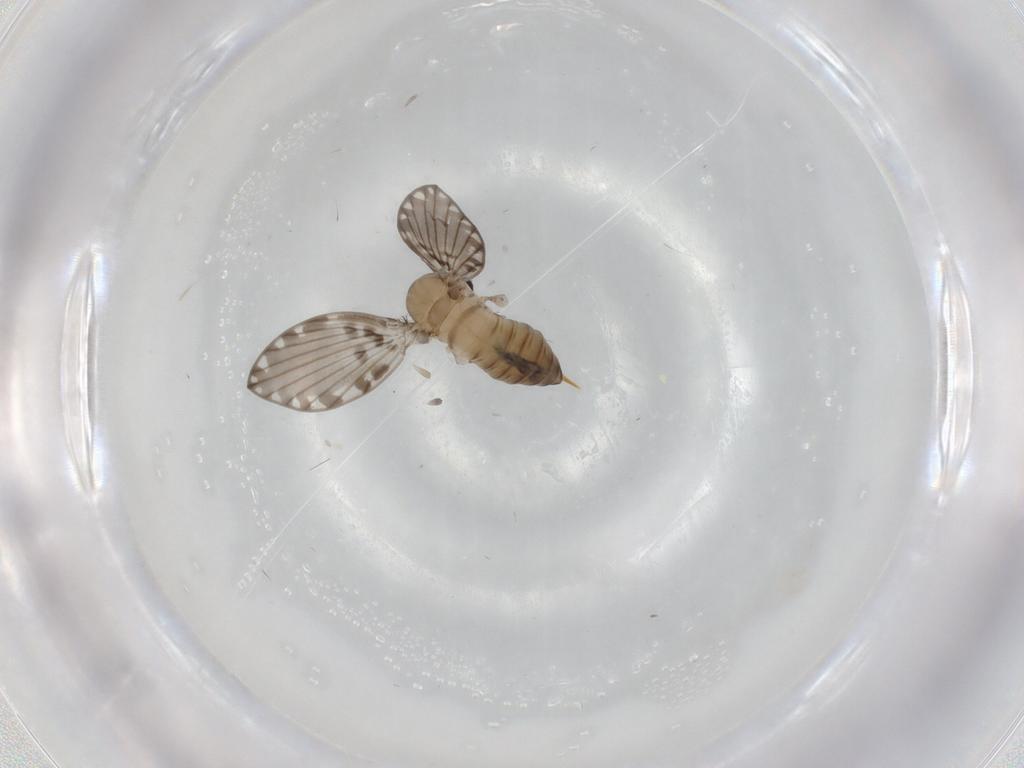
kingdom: Animalia
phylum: Arthropoda
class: Insecta
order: Diptera
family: Psychodidae
